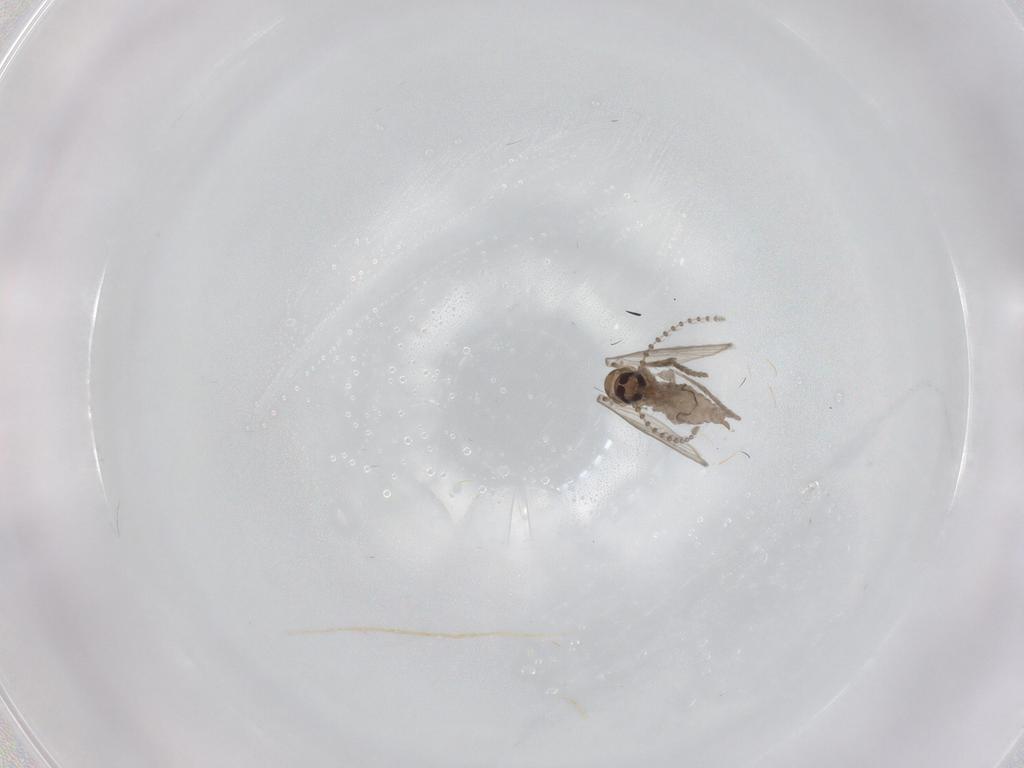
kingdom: Animalia
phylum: Arthropoda
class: Insecta
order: Diptera
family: Psychodidae
